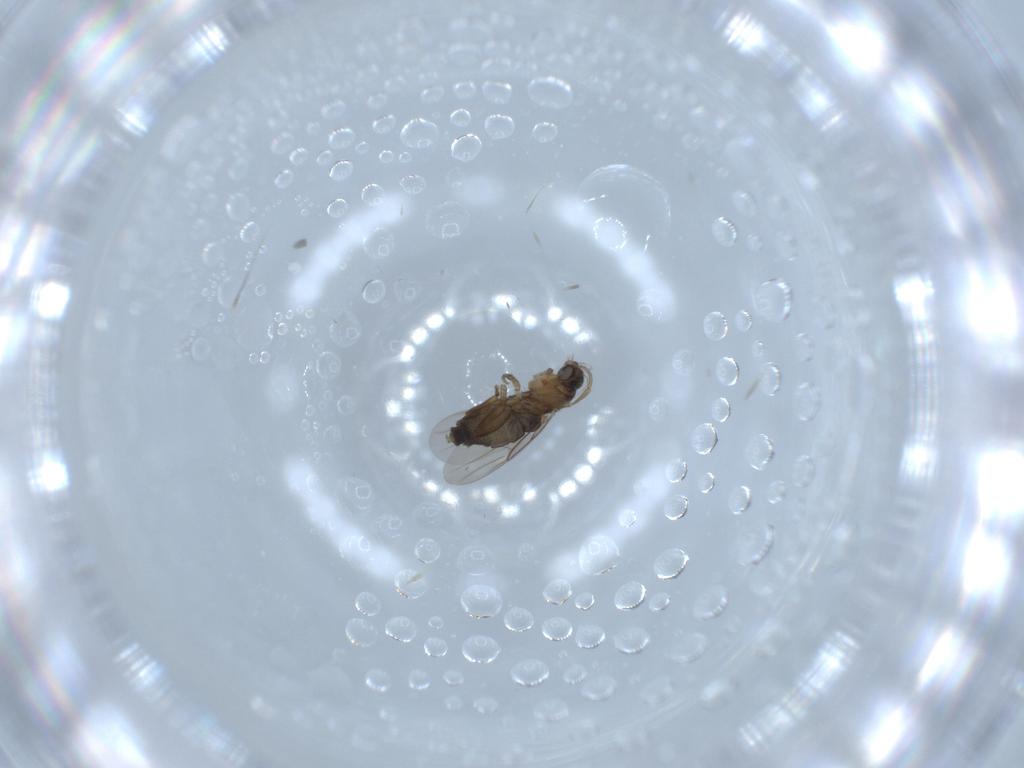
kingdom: Animalia
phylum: Arthropoda
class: Insecta
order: Diptera
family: Phoridae
